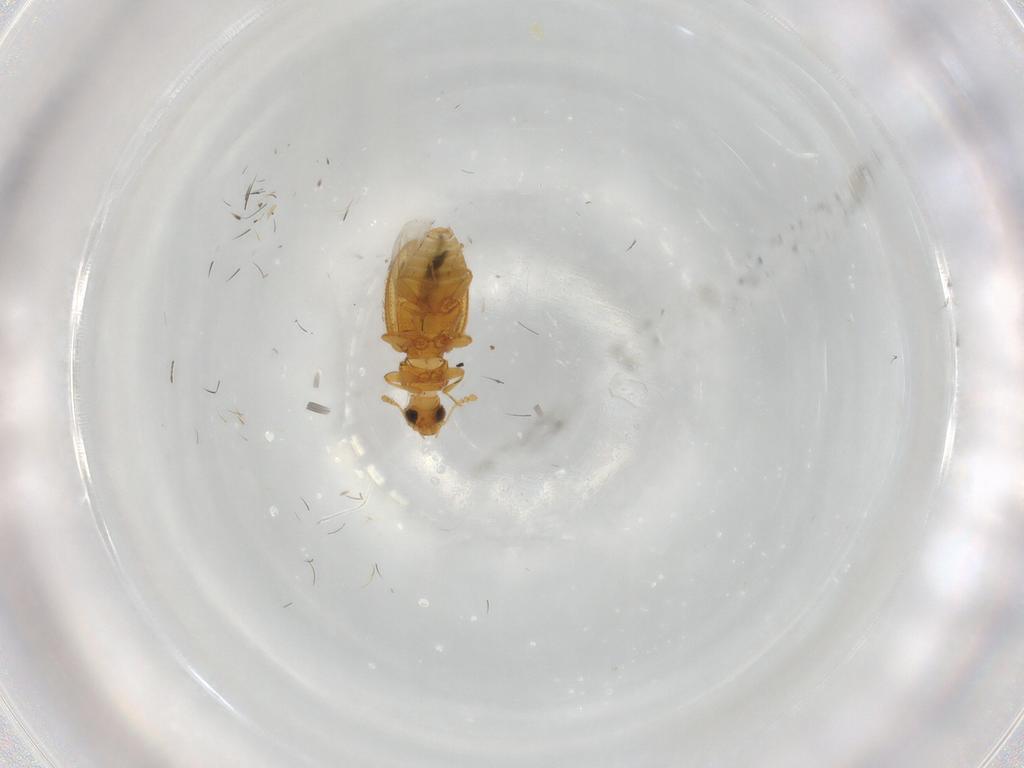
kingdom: Animalia
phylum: Arthropoda
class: Insecta
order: Coleoptera
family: Latridiidae
